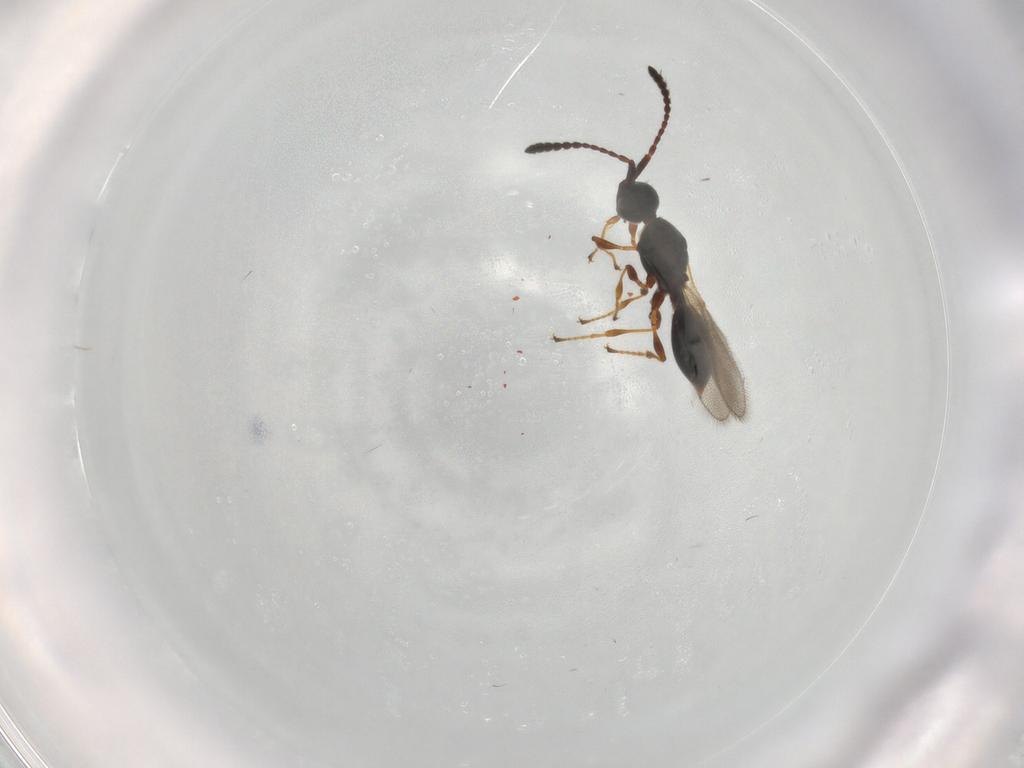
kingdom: Animalia
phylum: Arthropoda
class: Insecta
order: Hymenoptera
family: Diapriidae
